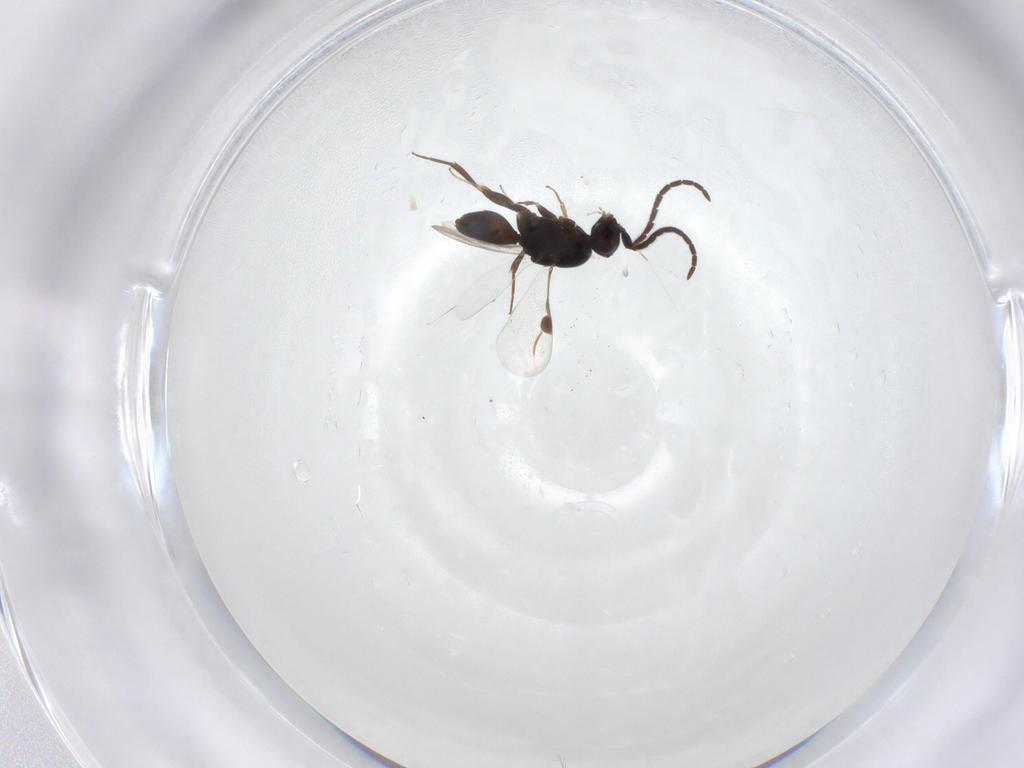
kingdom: Animalia
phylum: Arthropoda
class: Insecta
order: Hymenoptera
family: Megaspilidae
